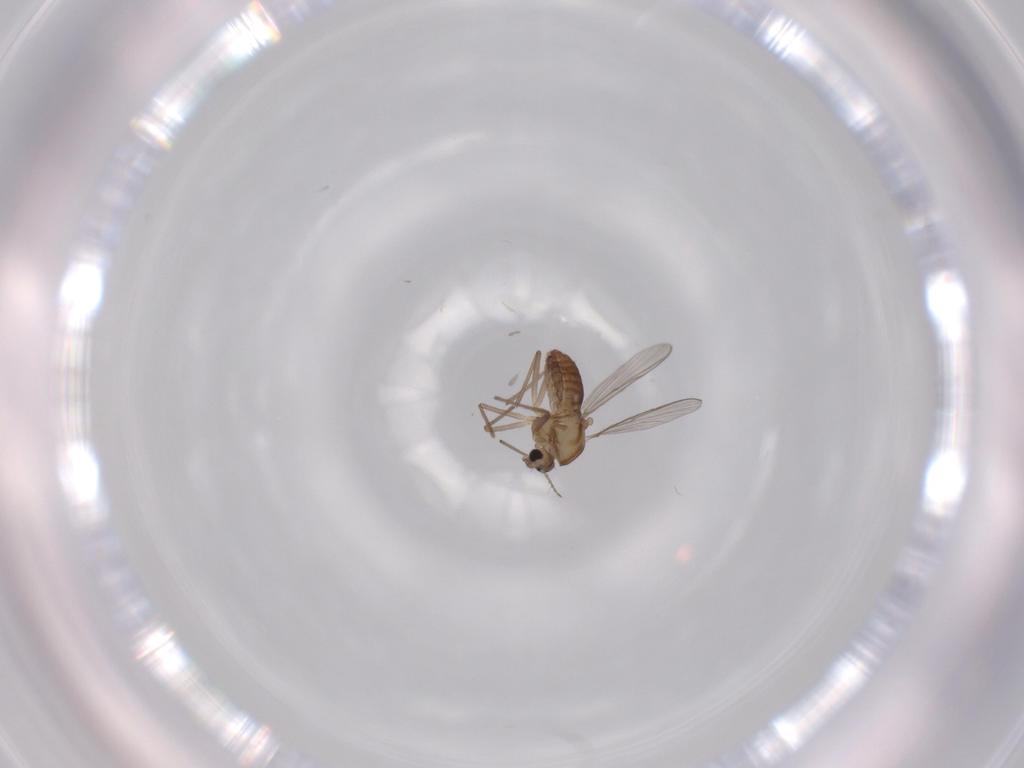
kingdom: Animalia
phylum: Arthropoda
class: Insecta
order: Diptera
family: Chironomidae
